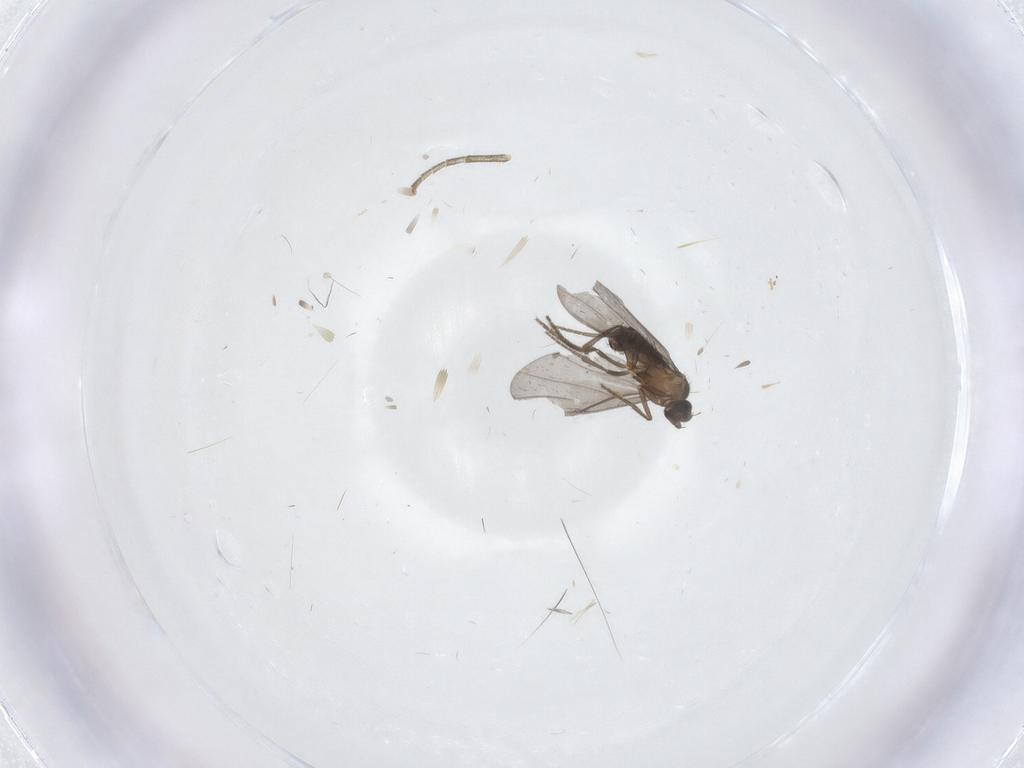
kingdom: Animalia
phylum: Arthropoda
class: Insecta
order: Diptera
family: Phoridae
